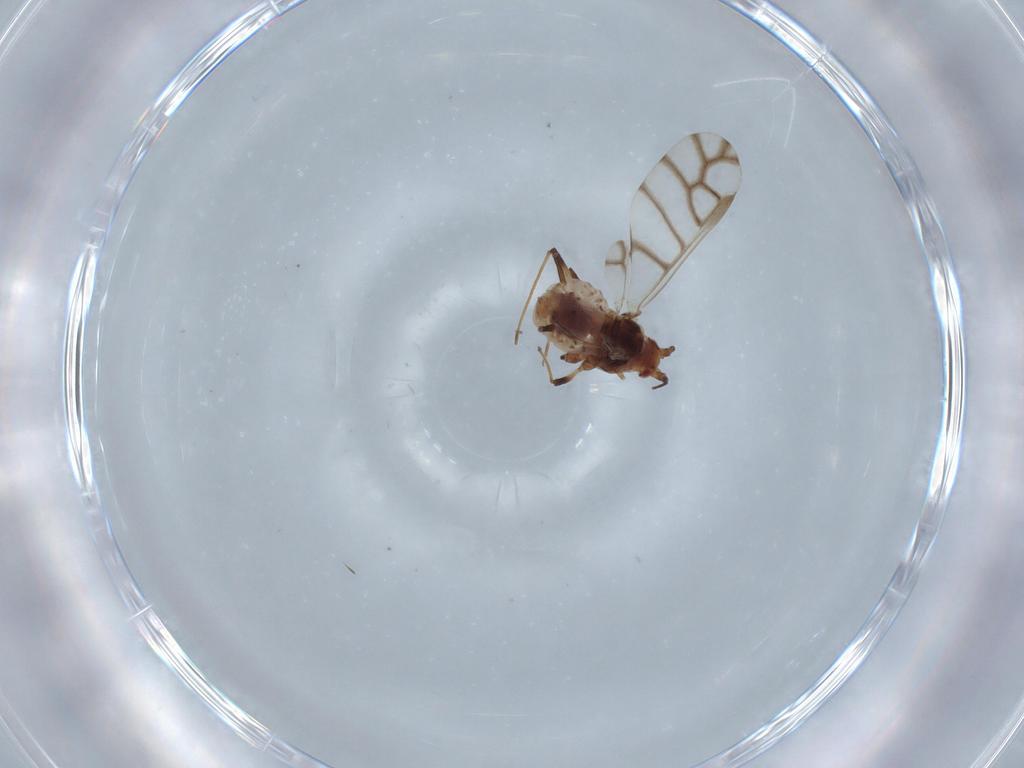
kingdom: Animalia
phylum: Arthropoda
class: Insecta
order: Hemiptera
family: Aphididae
